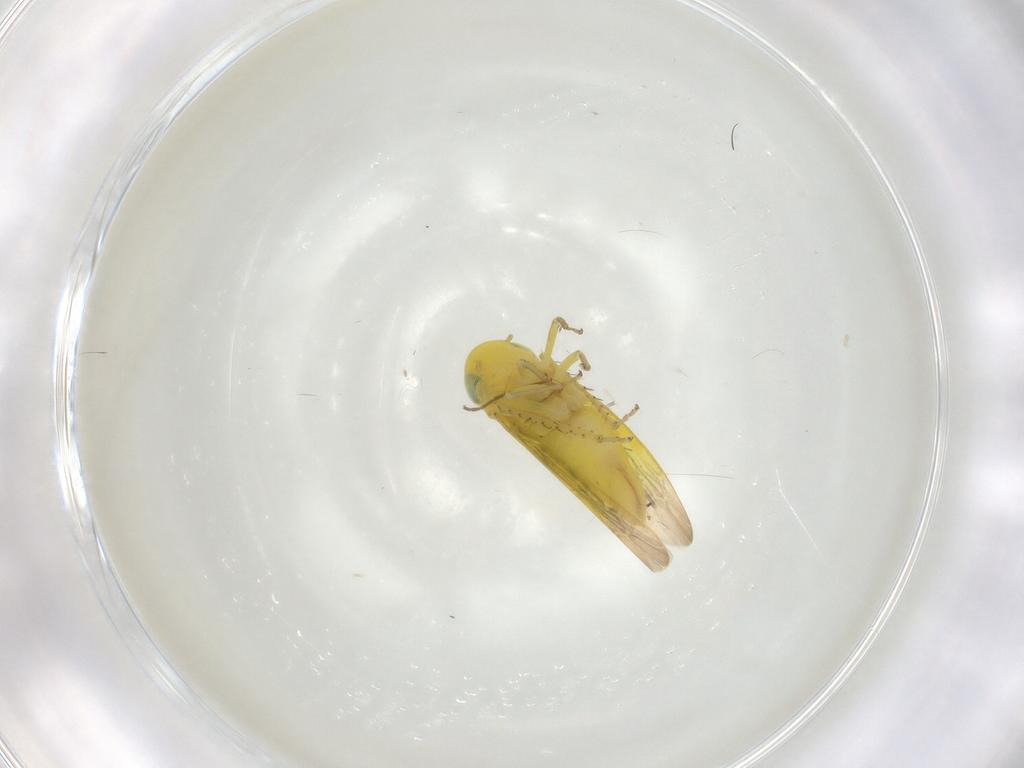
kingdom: Animalia
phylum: Arthropoda
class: Insecta
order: Hemiptera
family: Cicadellidae
